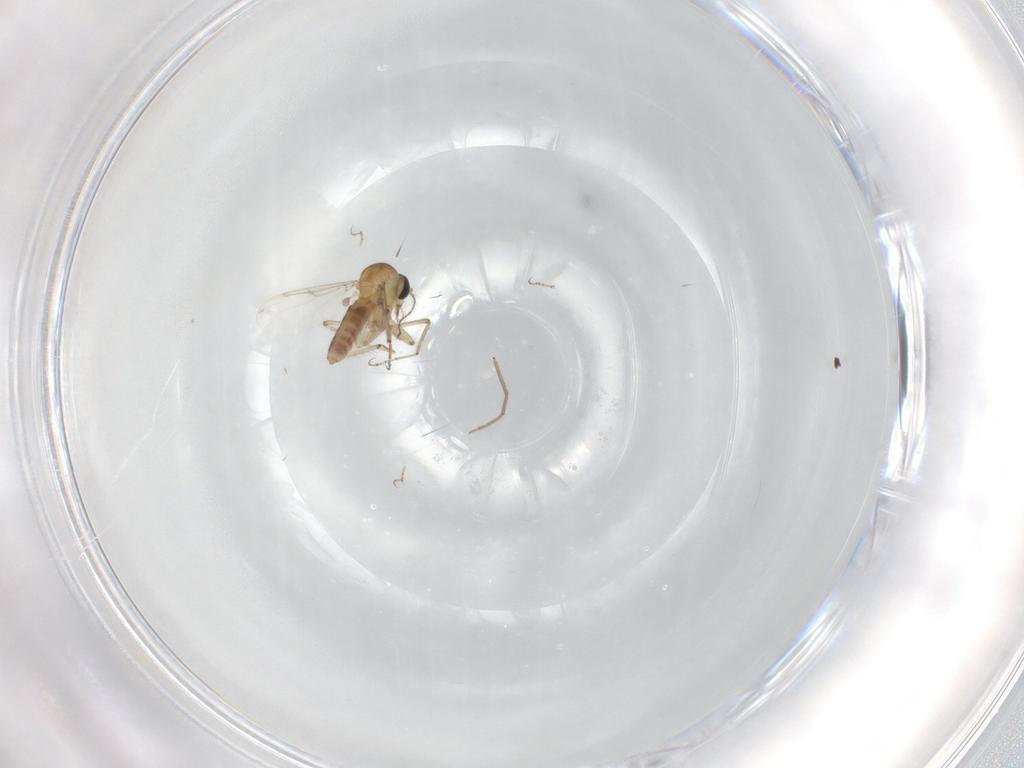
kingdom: Animalia
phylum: Arthropoda
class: Insecta
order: Diptera
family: Ceratopogonidae
